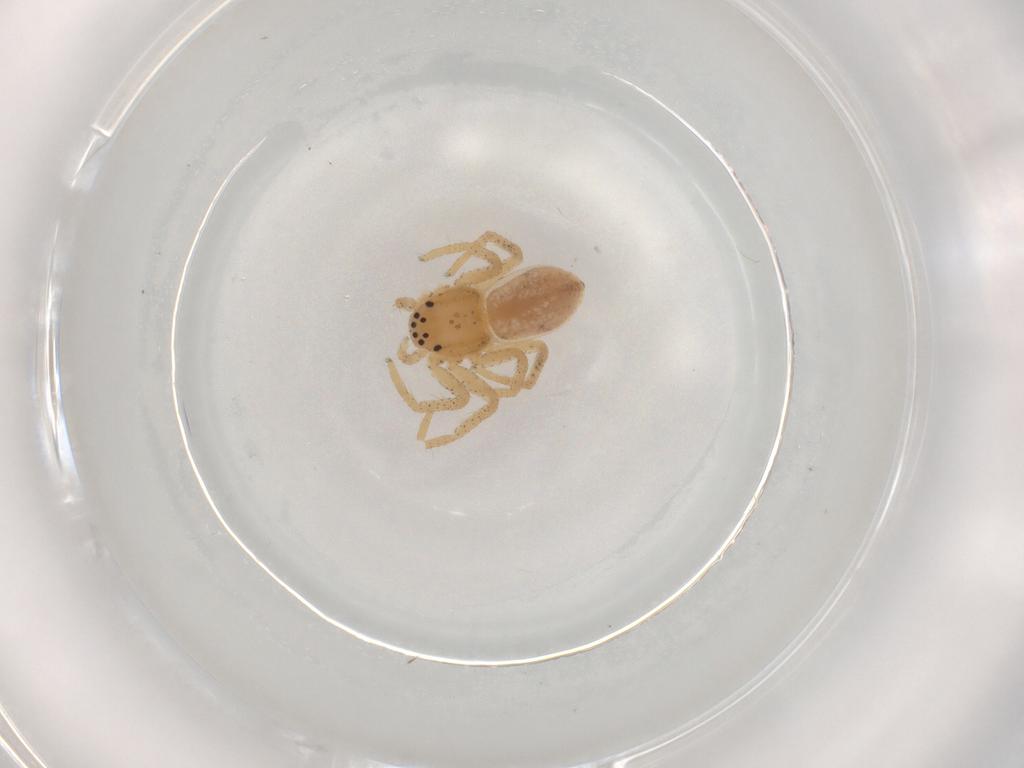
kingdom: Animalia
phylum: Arthropoda
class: Arachnida
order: Araneae
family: Philodromidae
